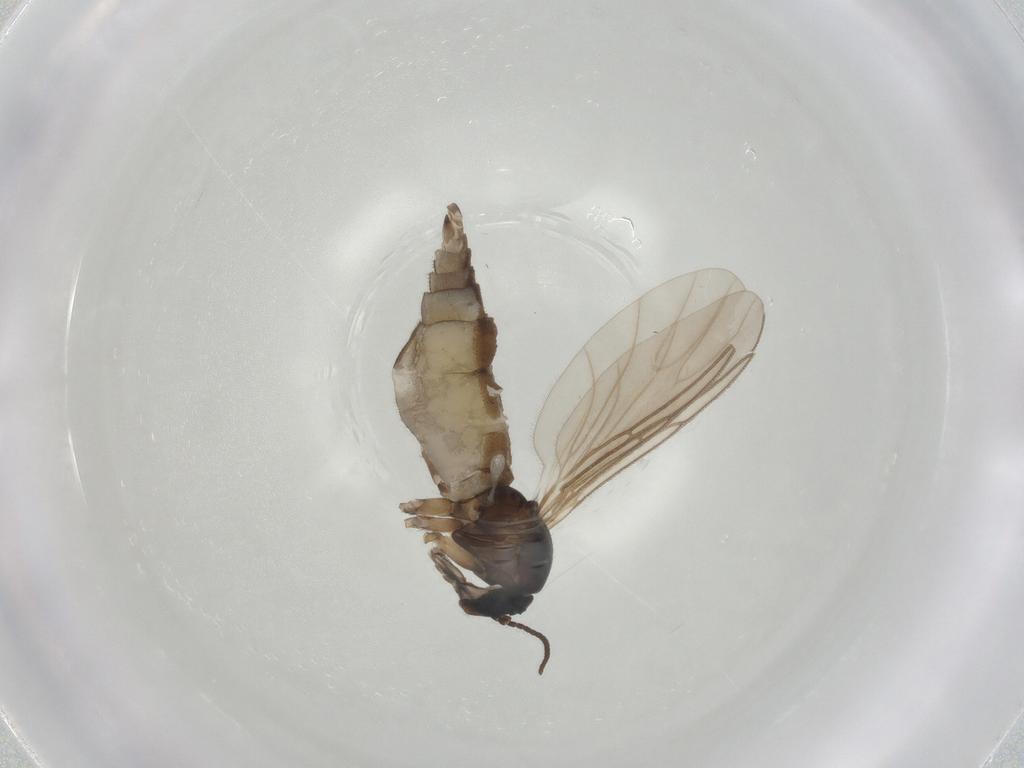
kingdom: Animalia
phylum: Arthropoda
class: Insecta
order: Diptera
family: Sciaridae
